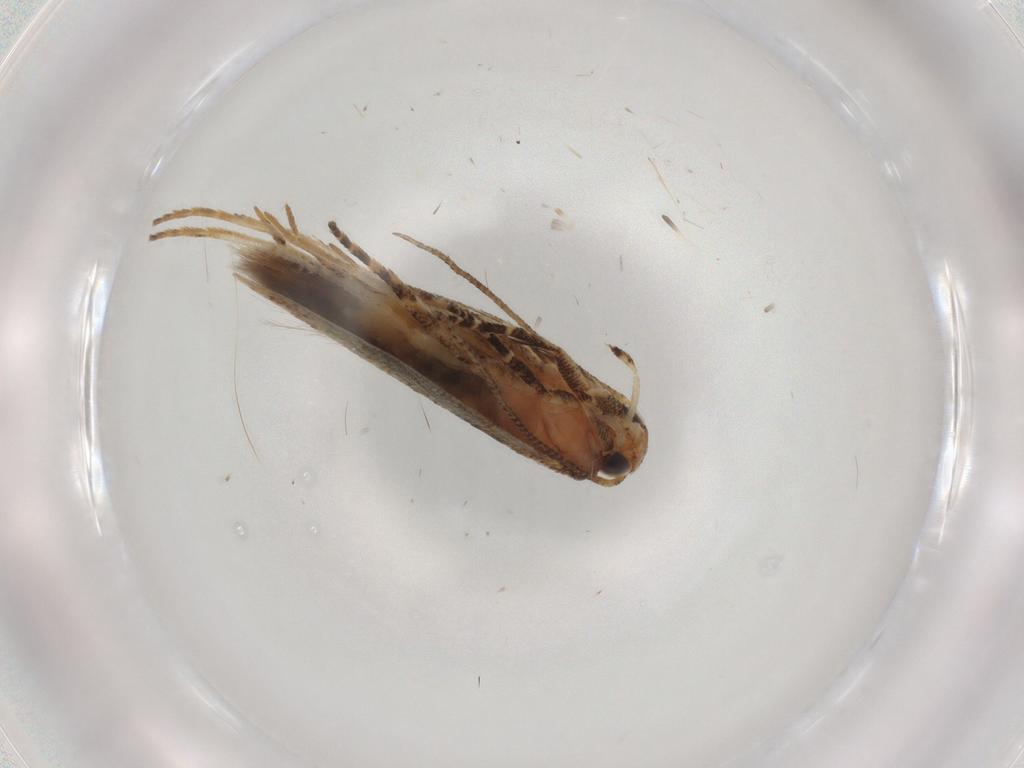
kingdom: Animalia
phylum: Arthropoda
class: Insecta
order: Lepidoptera
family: Gelechiidae
